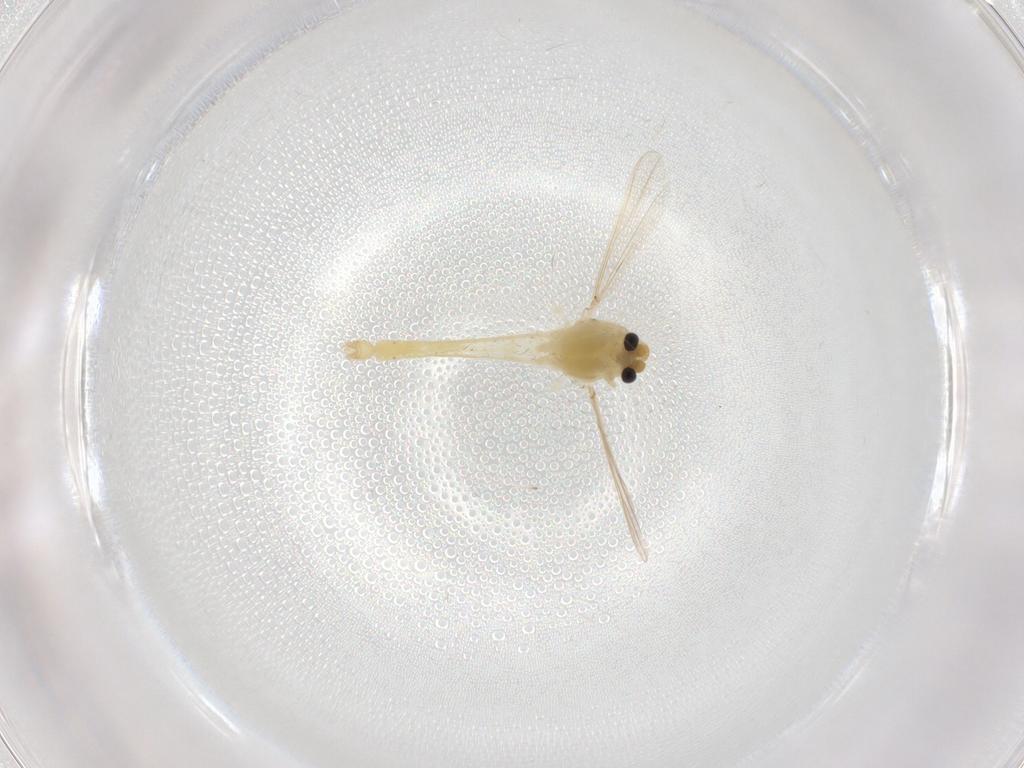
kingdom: Animalia
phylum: Arthropoda
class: Insecta
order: Diptera
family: Chironomidae
